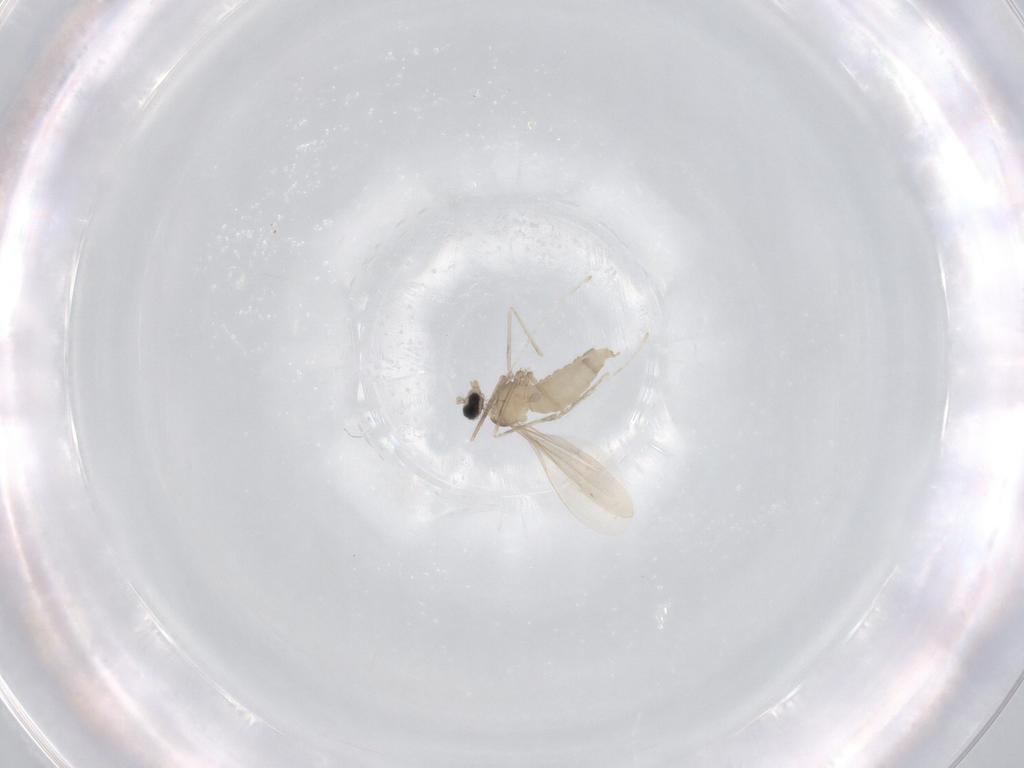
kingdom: Animalia
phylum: Arthropoda
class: Insecta
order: Diptera
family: Cecidomyiidae
